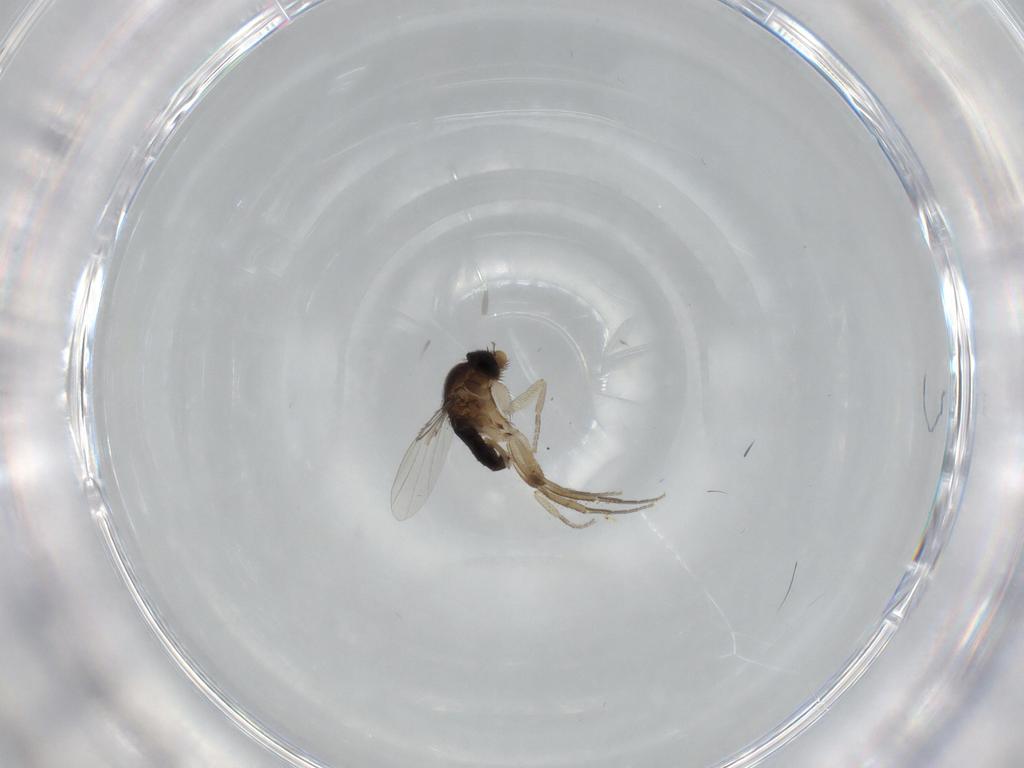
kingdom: Animalia
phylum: Arthropoda
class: Insecta
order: Diptera
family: Phoridae
